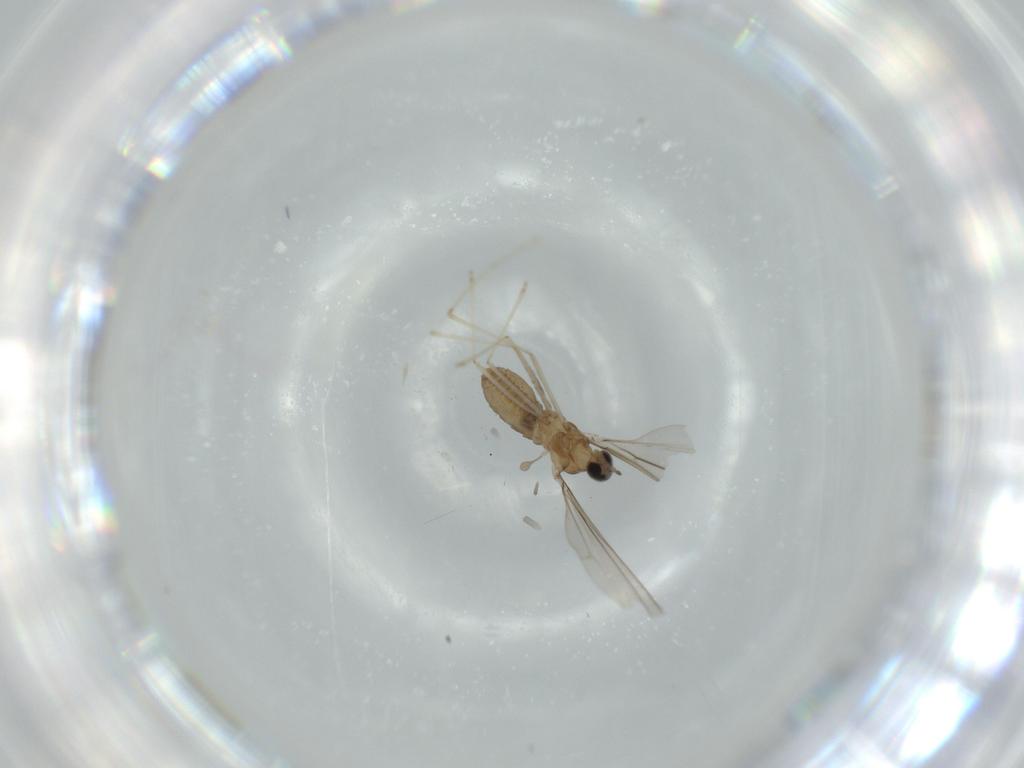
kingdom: Animalia
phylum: Arthropoda
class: Insecta
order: Diptera
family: Cecidomyiidae
